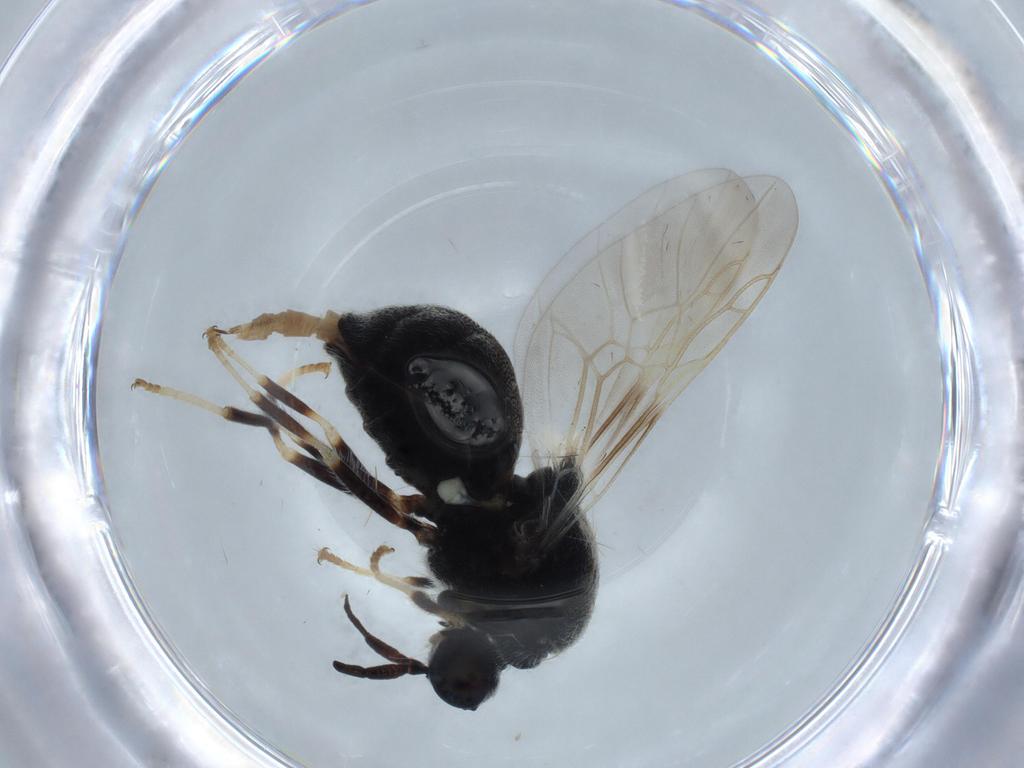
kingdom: Animalia
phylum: Arthropoda
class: Insecta
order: Diptera
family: Stratiomyidae
